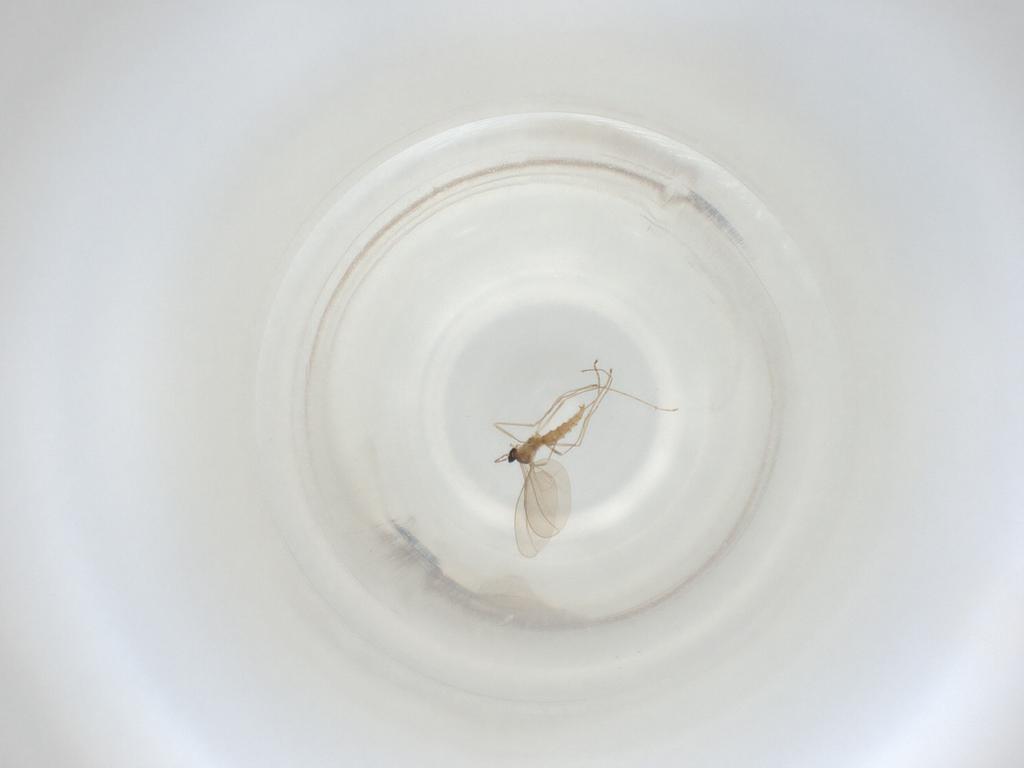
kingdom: Animalia
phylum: Arthropoda
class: Insecta
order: Diptera
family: Cecidomyiidae
